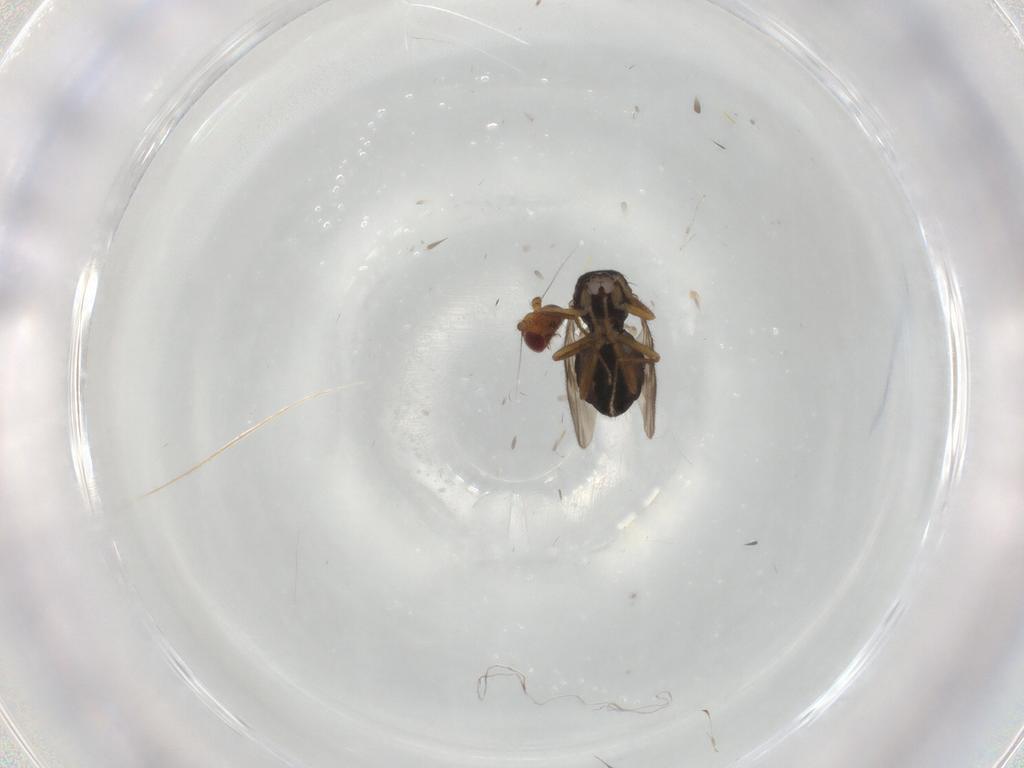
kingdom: Animalia
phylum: Arthropoda
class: Insecta
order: Diptera
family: Sphaeroceridae
